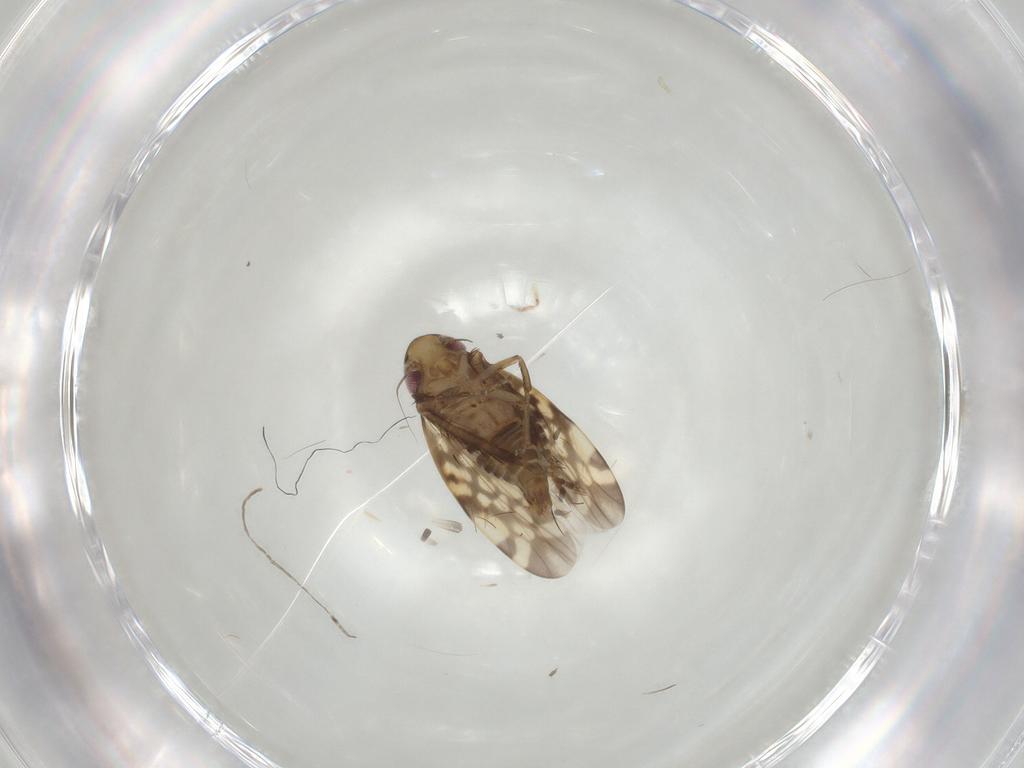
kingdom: Animalia
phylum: Arthropoda
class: Insecta
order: Hemiptera
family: Cicadellidae
